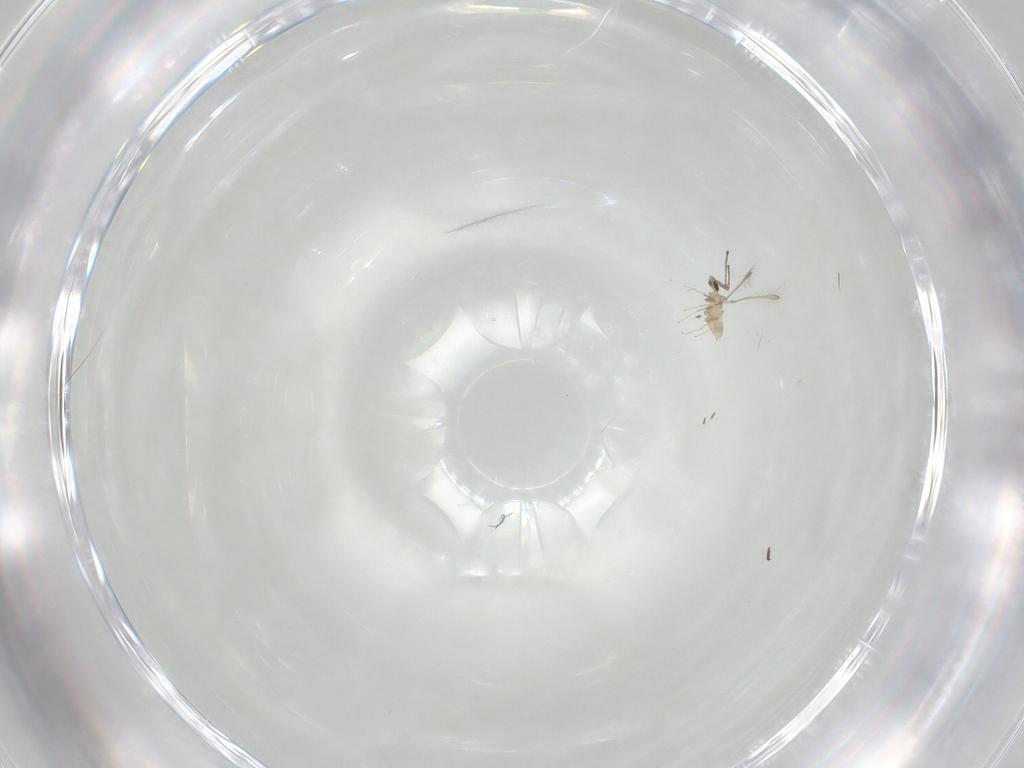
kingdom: Animalia
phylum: Arthropoda
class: Insecta
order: Hymenoptera
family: Mymaridae
